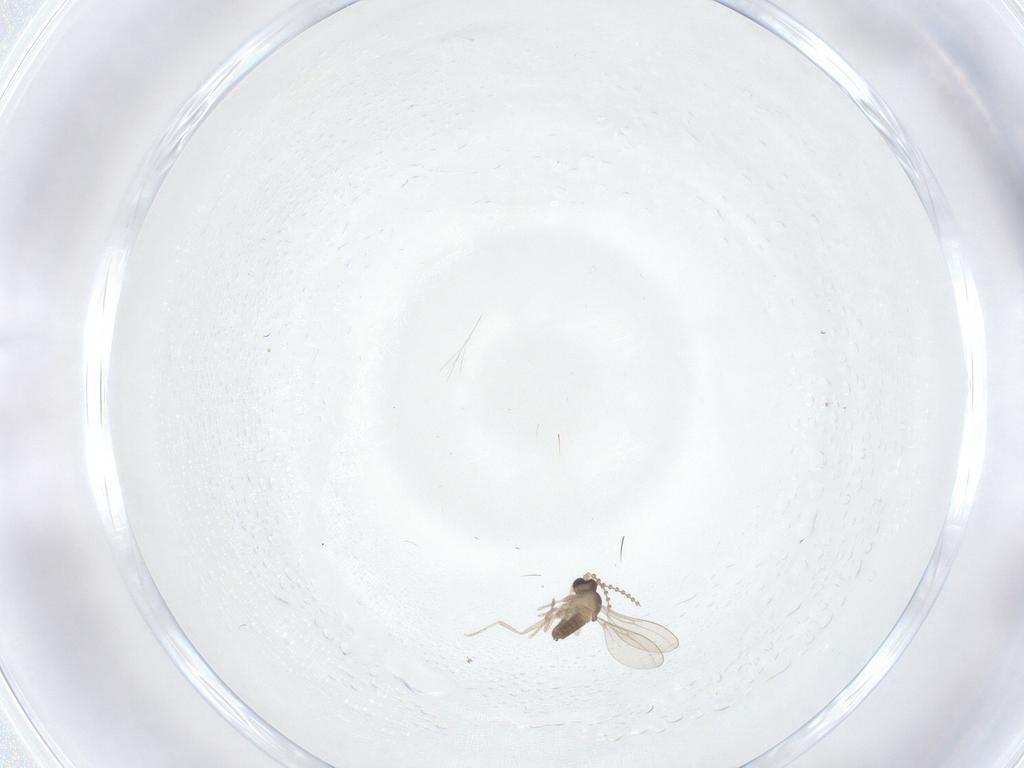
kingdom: Animalia
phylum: Arthropoda
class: Insecta
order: Diptera
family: Cecidomyiidae
